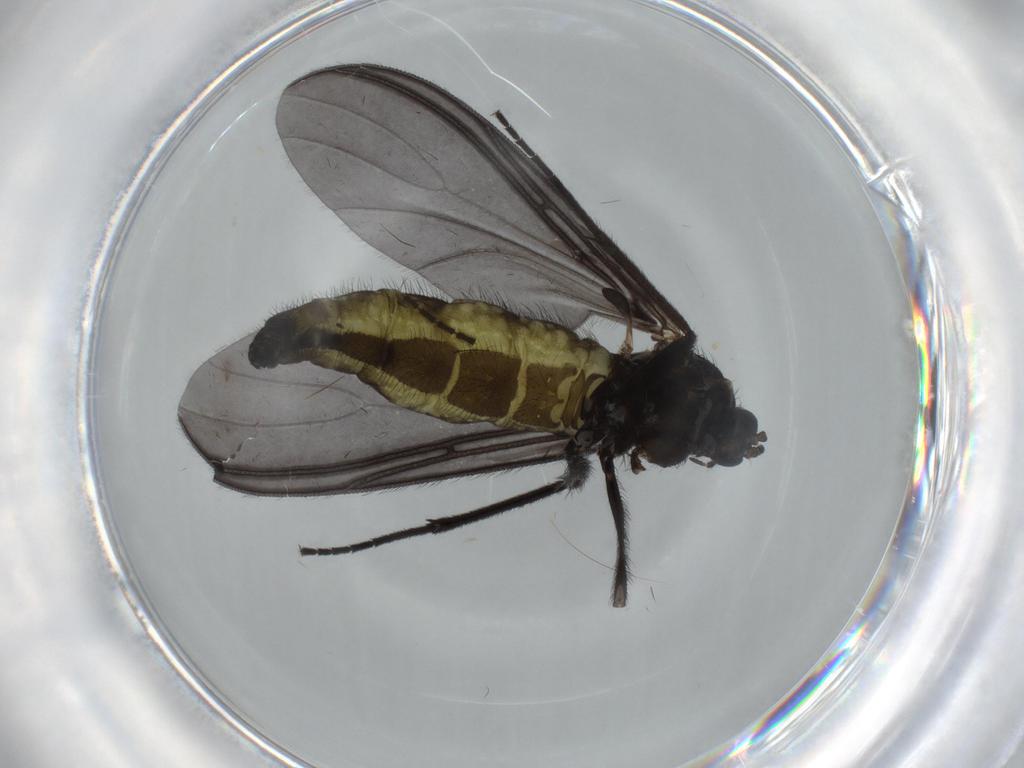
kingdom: Animalia
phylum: Arthropoda
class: Insecta
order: Diptera
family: Sciaridae
